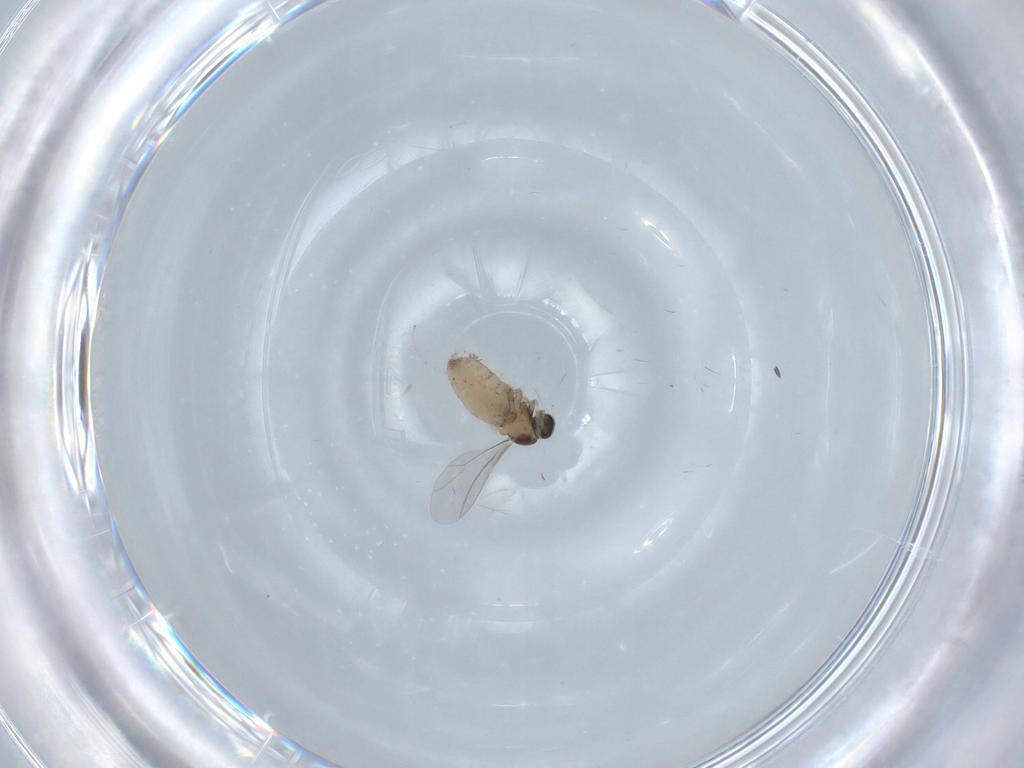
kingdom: Animalia
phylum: Arthropoda
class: Insecta
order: Diptera
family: Cecidomyiidae
